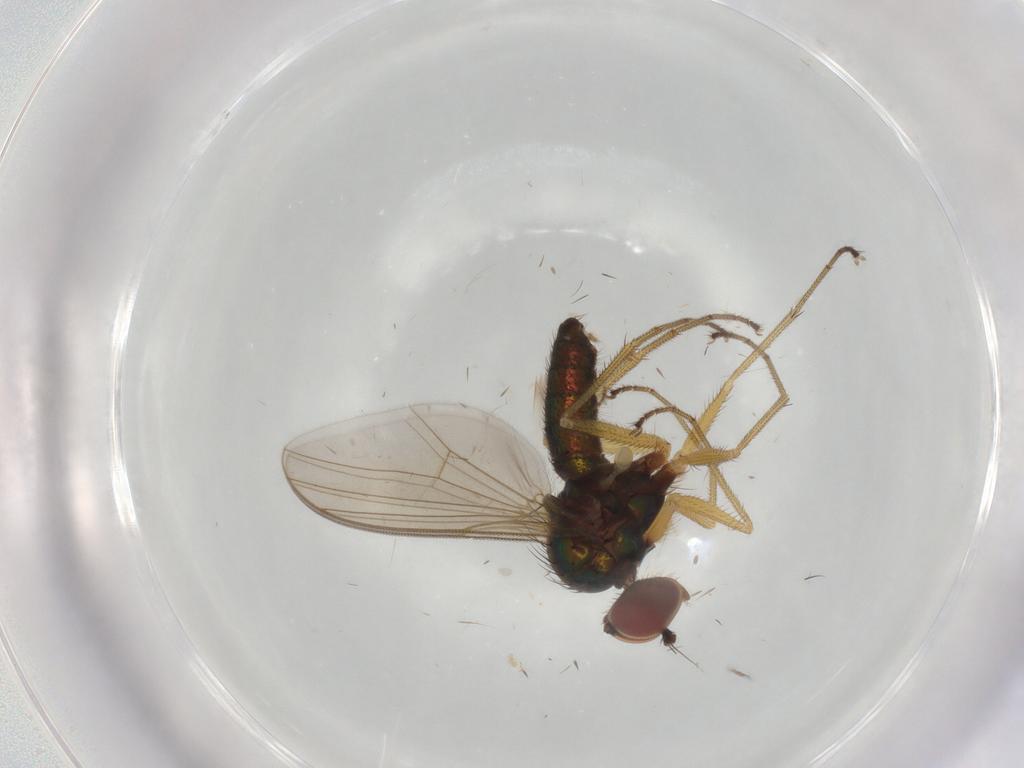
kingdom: Animalia
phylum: Arthropoda
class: Insecta
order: Diptera
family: Dolichopodidae
